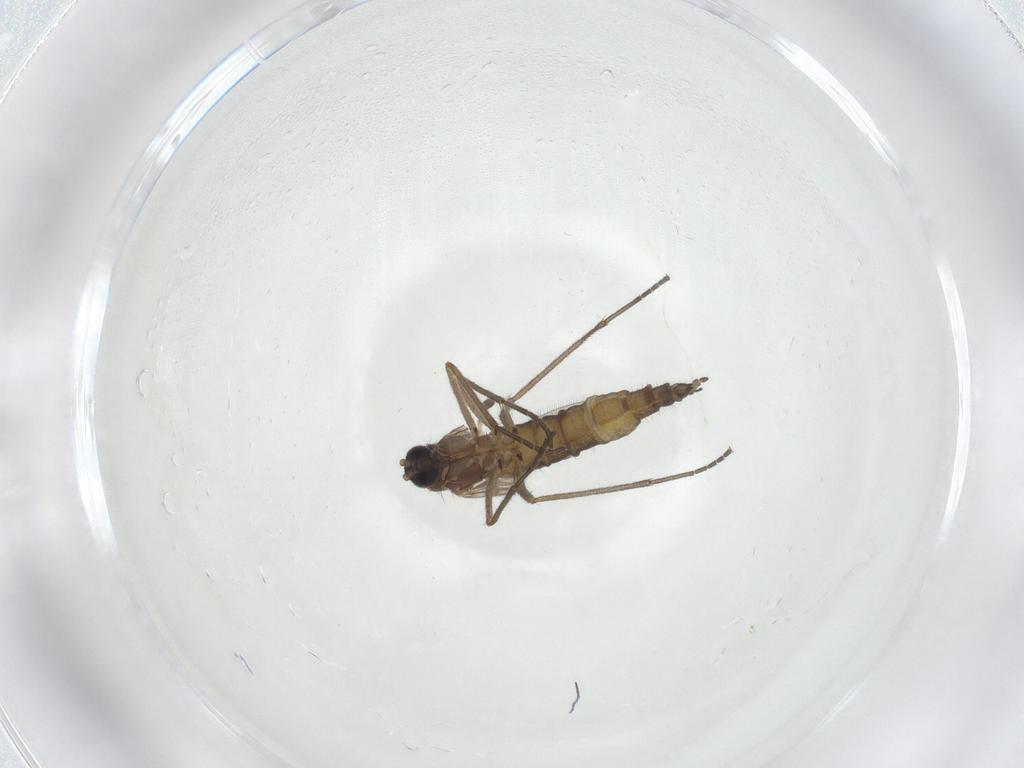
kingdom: Animalia
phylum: Arthropoda
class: Insecta
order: Diptera
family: Sciaridae
